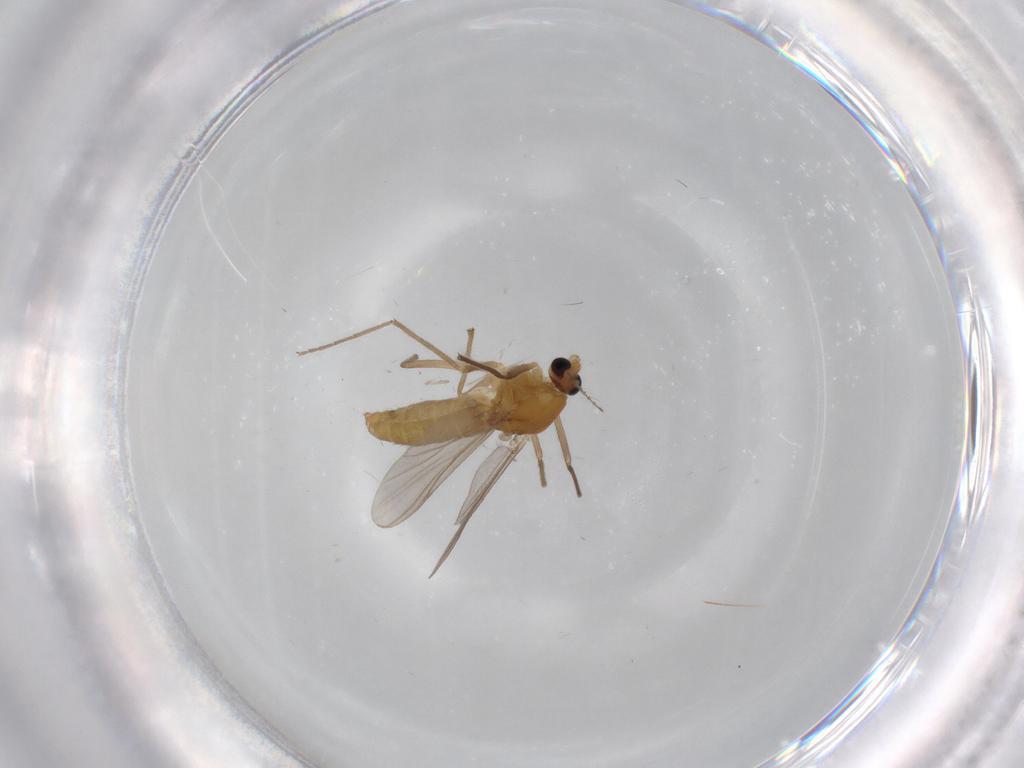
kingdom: Animalia
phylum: Arthropoda
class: Insecta
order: Diptera
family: Chironomidae
